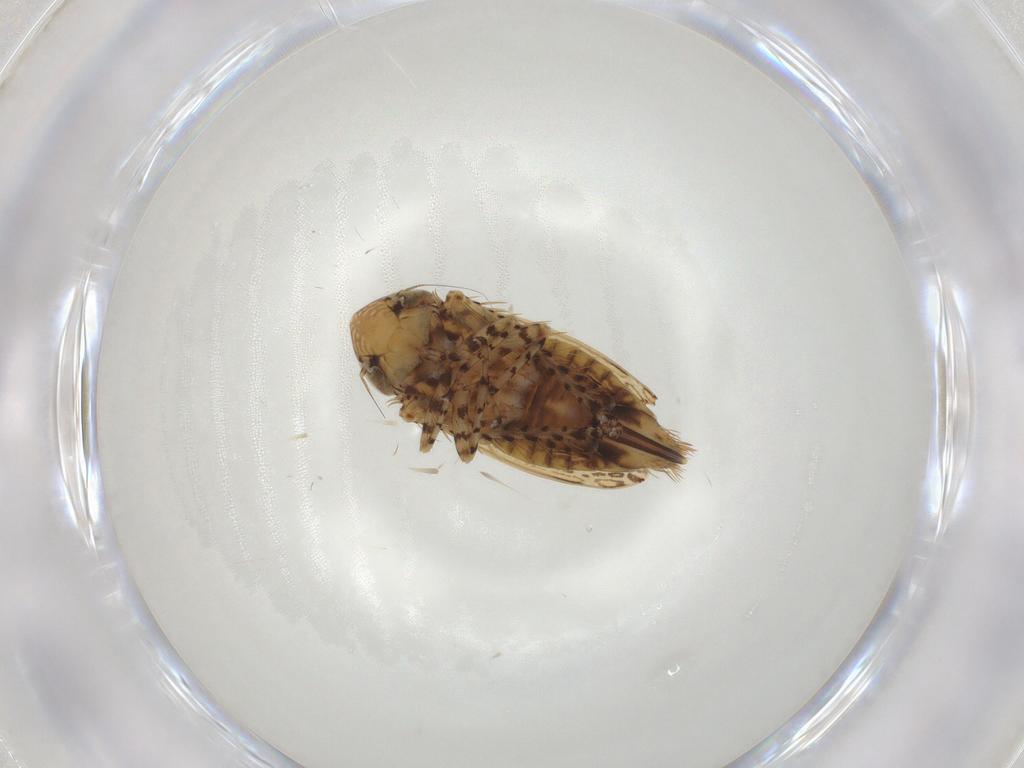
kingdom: Animalia
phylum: Arthropoda
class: Insecta
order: Hemiptera
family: Cicadellidae
